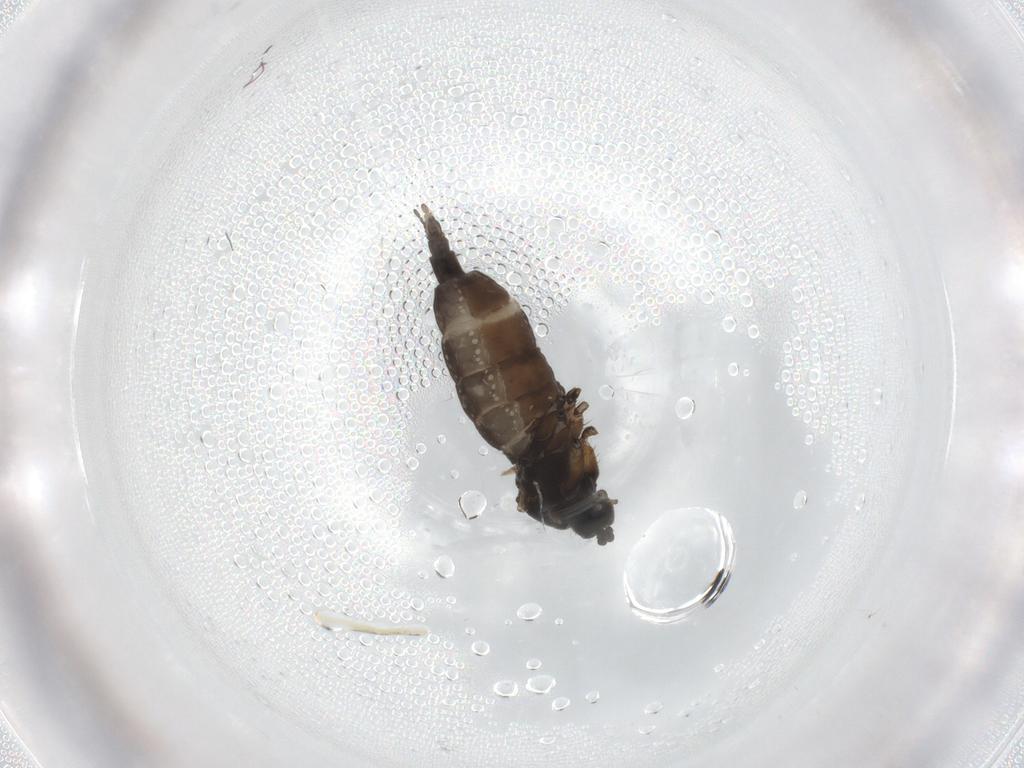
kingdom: Animalia
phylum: Arthropoda
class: Insecta
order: Diptera
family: Sciaridae
